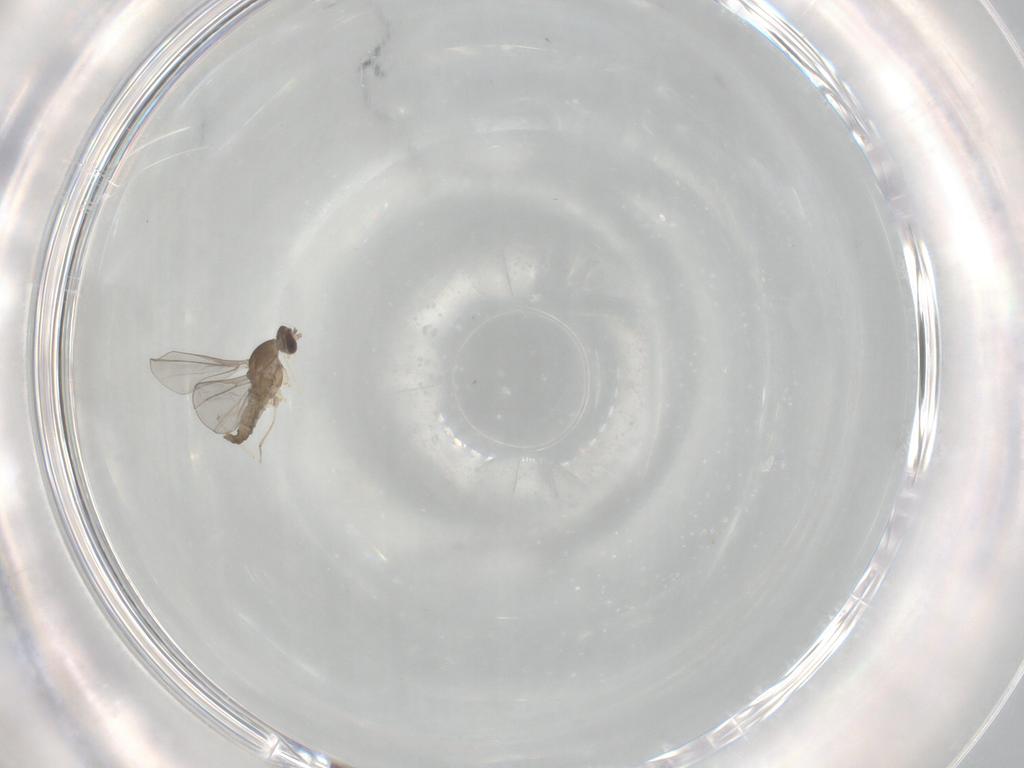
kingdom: Animalia
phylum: Arthropoda
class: Insecta
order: Diptera
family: Cecidomyiidae
